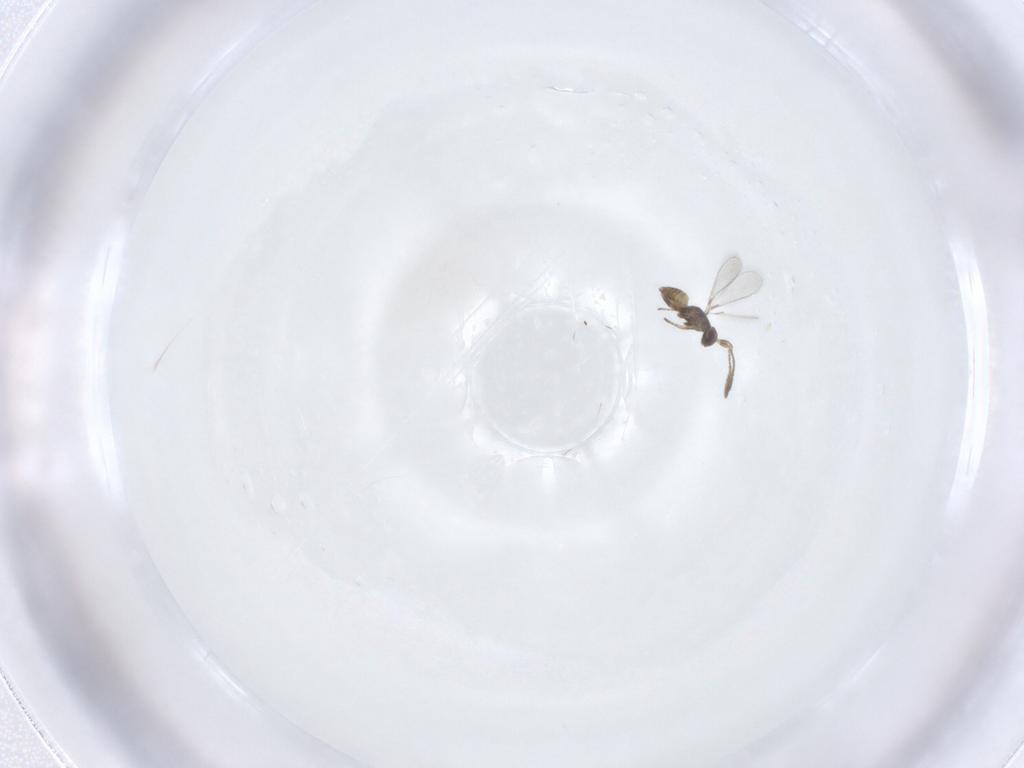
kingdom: Animalia
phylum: Arthropoda
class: Insecta
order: Hymenoptera
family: Mymaridae
